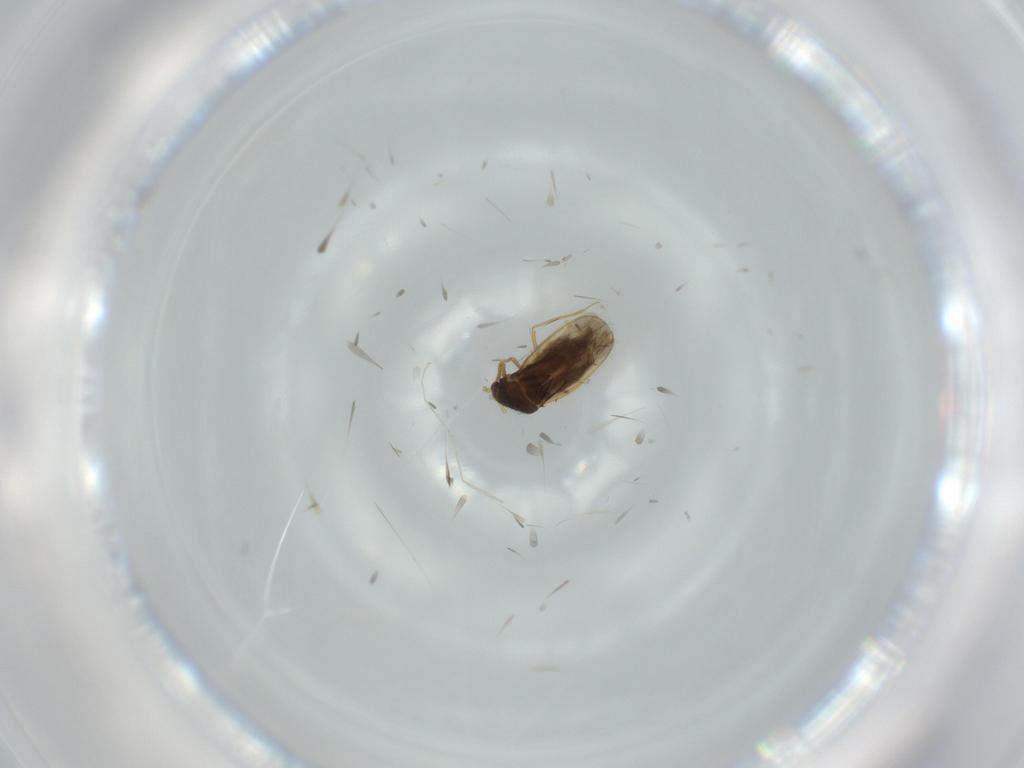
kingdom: Animalia
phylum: Arthropoda
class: Insecta
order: Hemiptera
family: Schizopteridae
